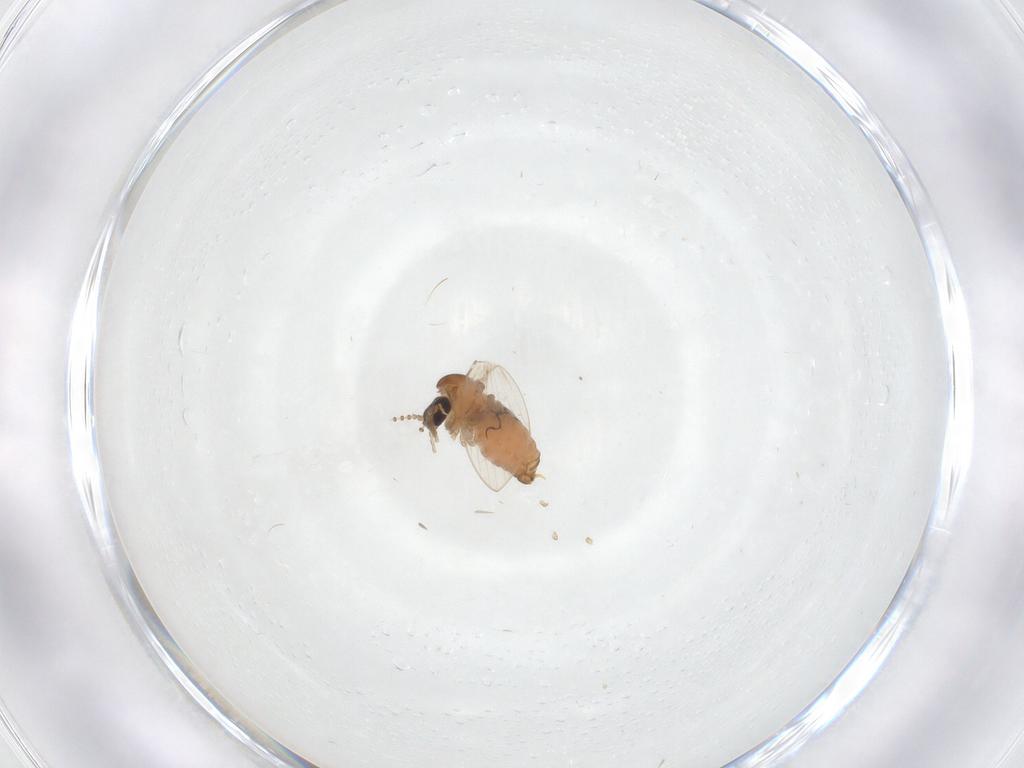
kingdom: Animalia
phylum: Arthropoda
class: Insecta
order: Diptera
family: Psychodidae
